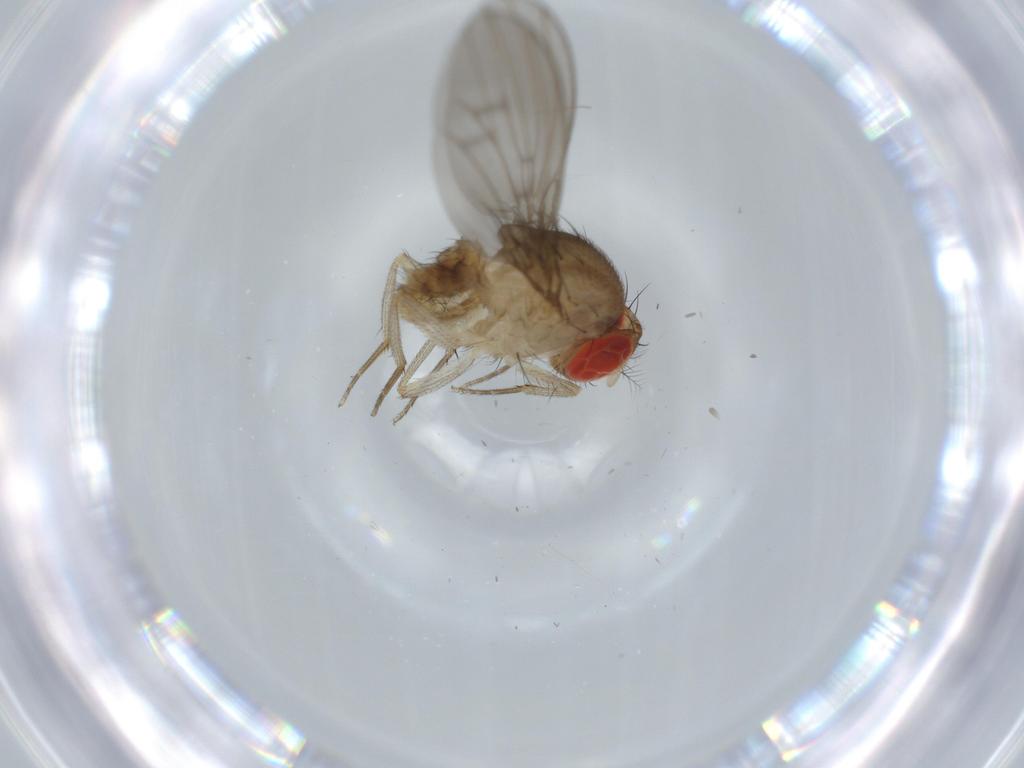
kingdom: Animalia
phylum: Arthropoda
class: Insecta
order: Diptera
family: Drosophilidae
